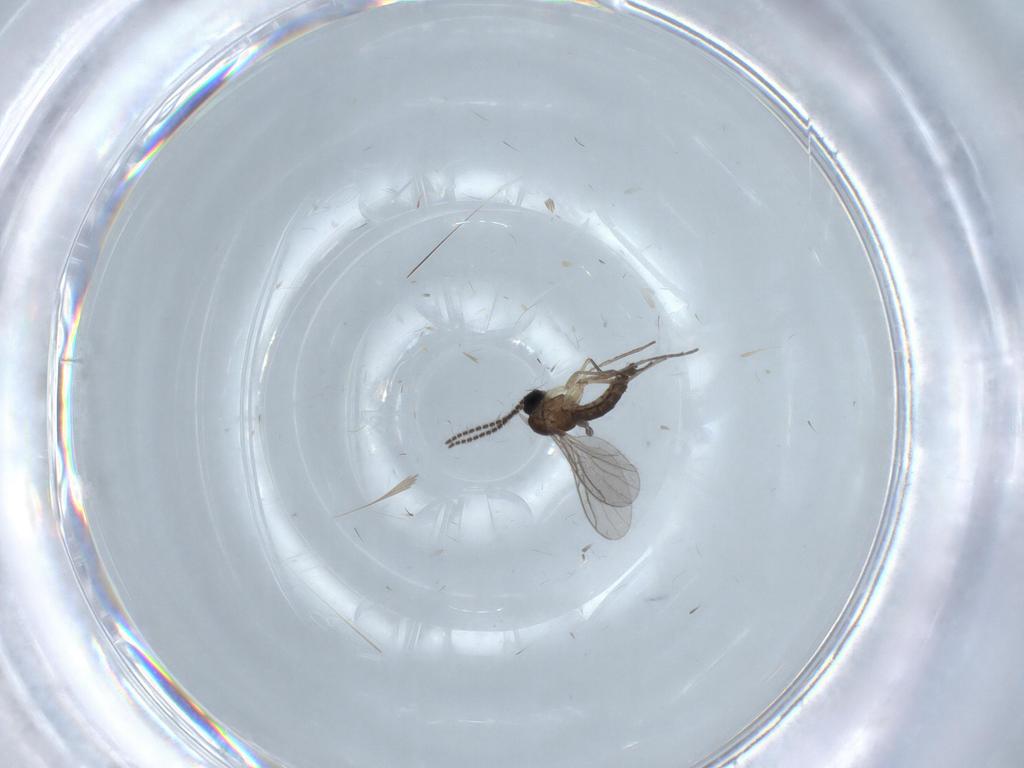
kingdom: Animalia
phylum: Arthropoda
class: Insecta
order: Diptera
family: Sciaridae
